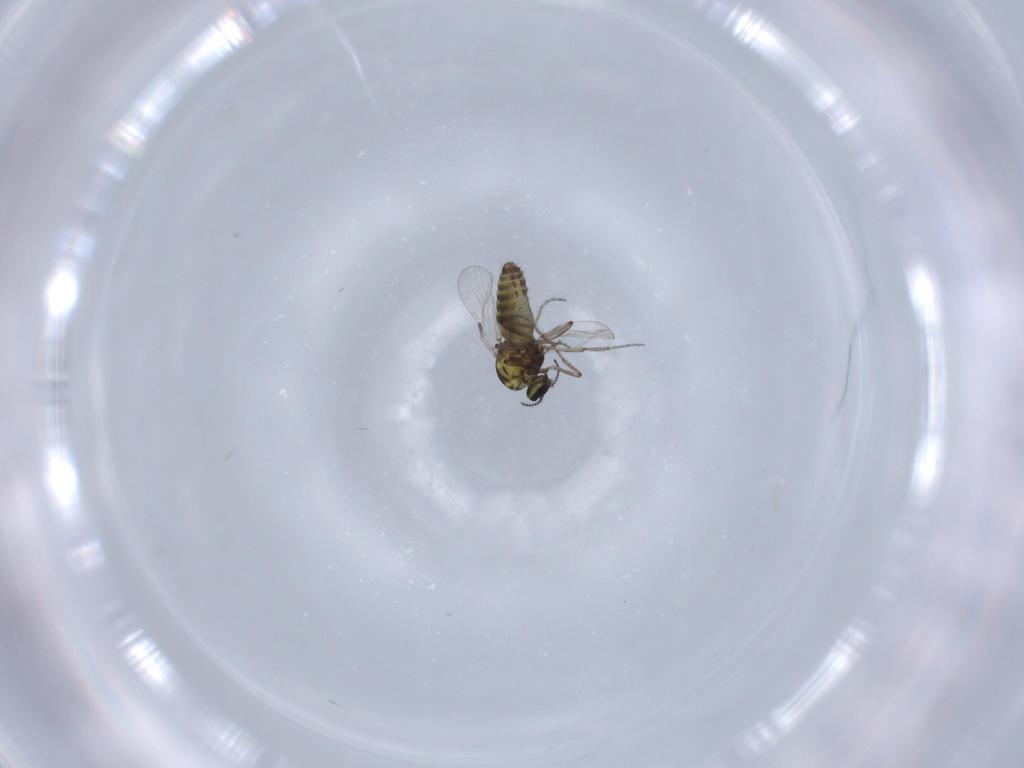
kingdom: Animalia
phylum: Arthropoda
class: Insecta
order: Diptera
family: Ceratopogonidae
